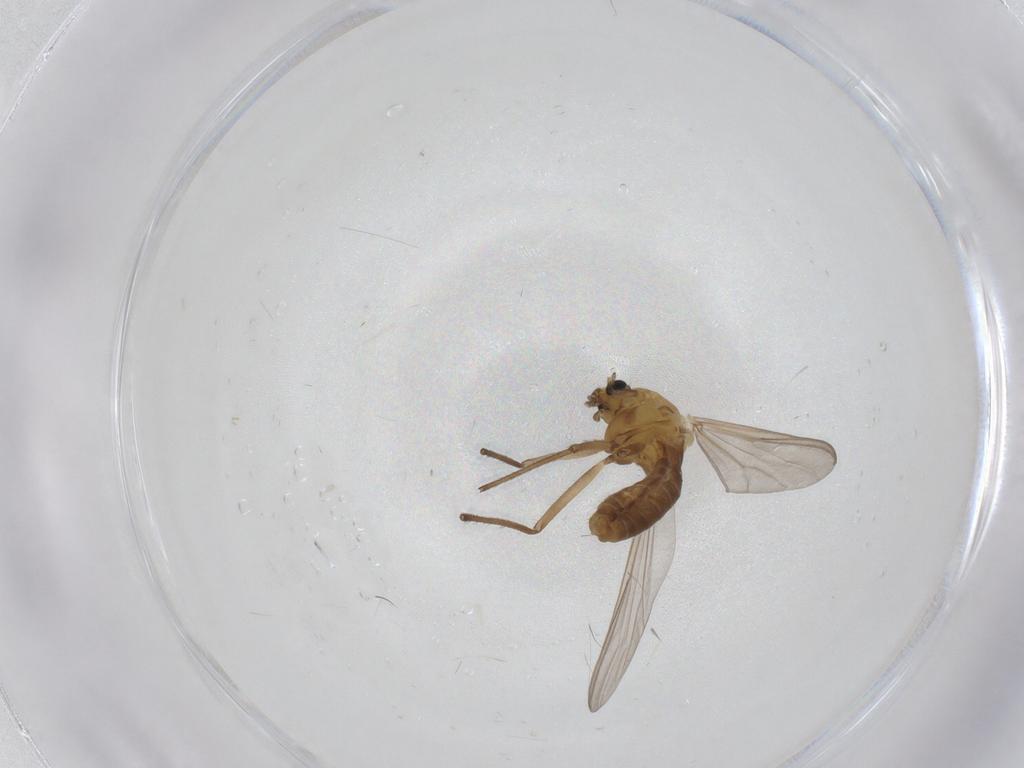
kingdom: Animalia
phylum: Arthropoda
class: Insecta
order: Diptera
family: Chironomidae
